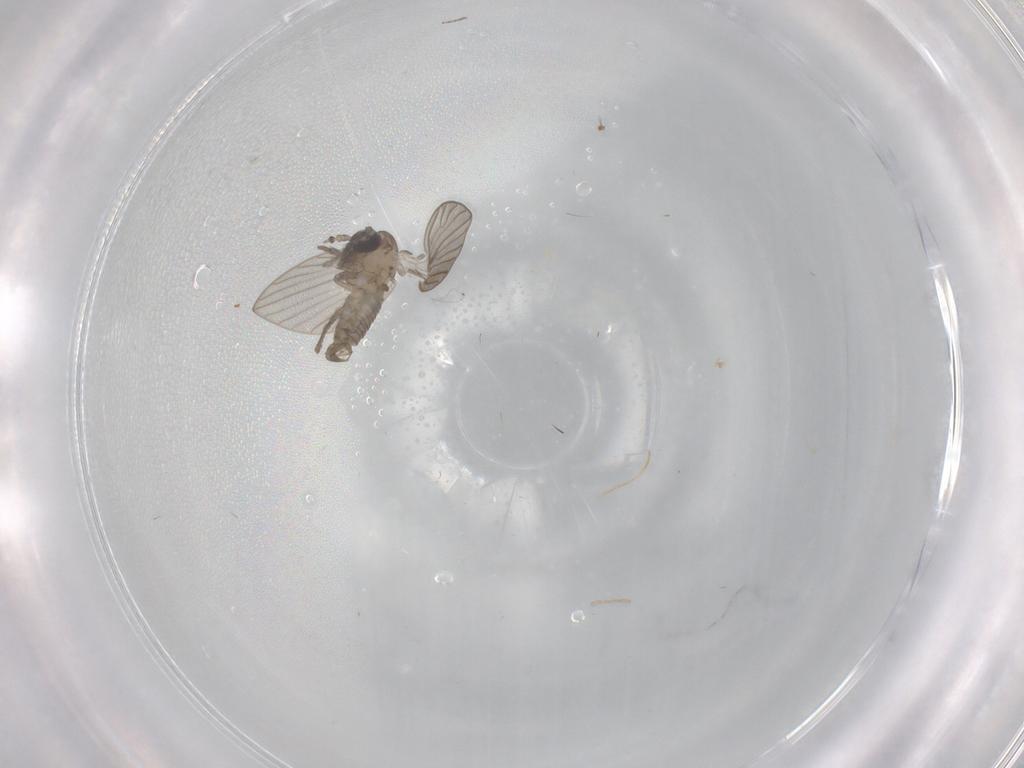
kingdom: Animalia
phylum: Arthropoda
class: Insecta
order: Diptera
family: Psychodidae
